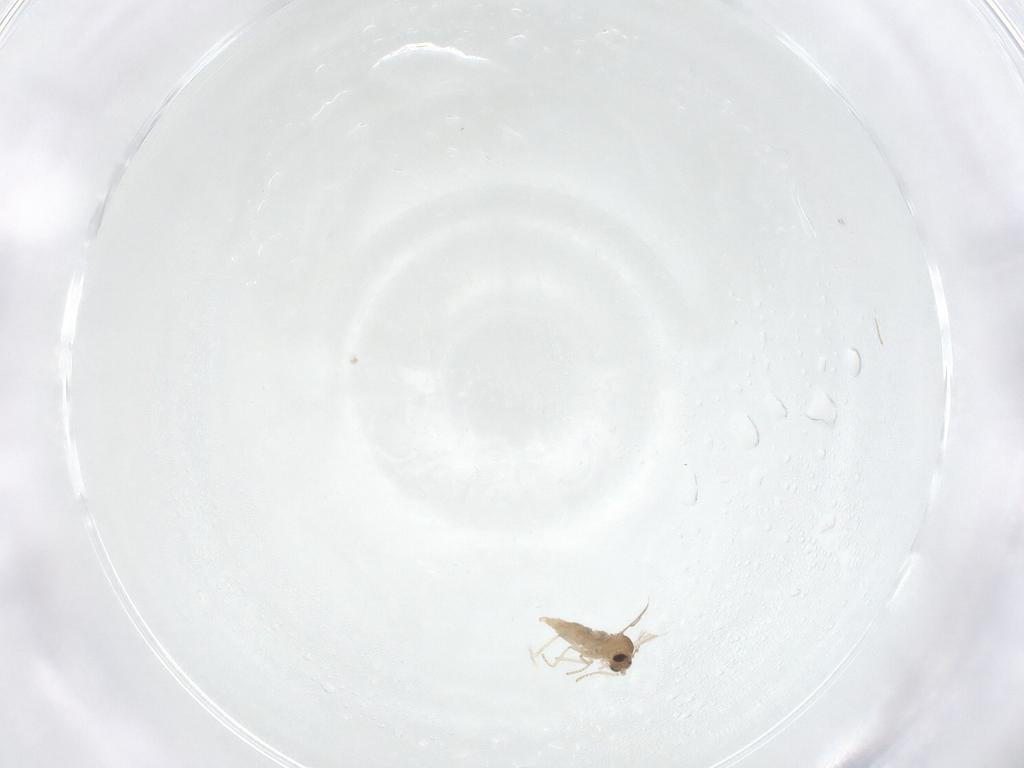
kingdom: Animalia
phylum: Arthropoda
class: Insecta
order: Diptera
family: Cecidomyiidae
